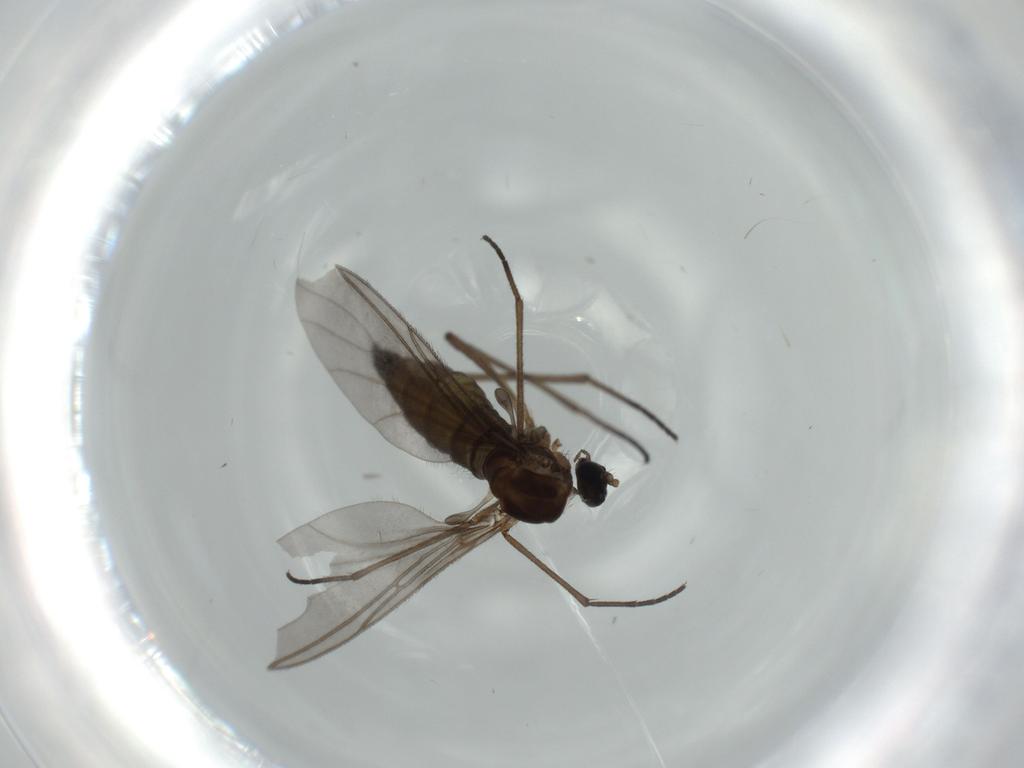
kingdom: Animalia
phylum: Arthropoda
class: Insecta
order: Diptera
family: Sciaridae
